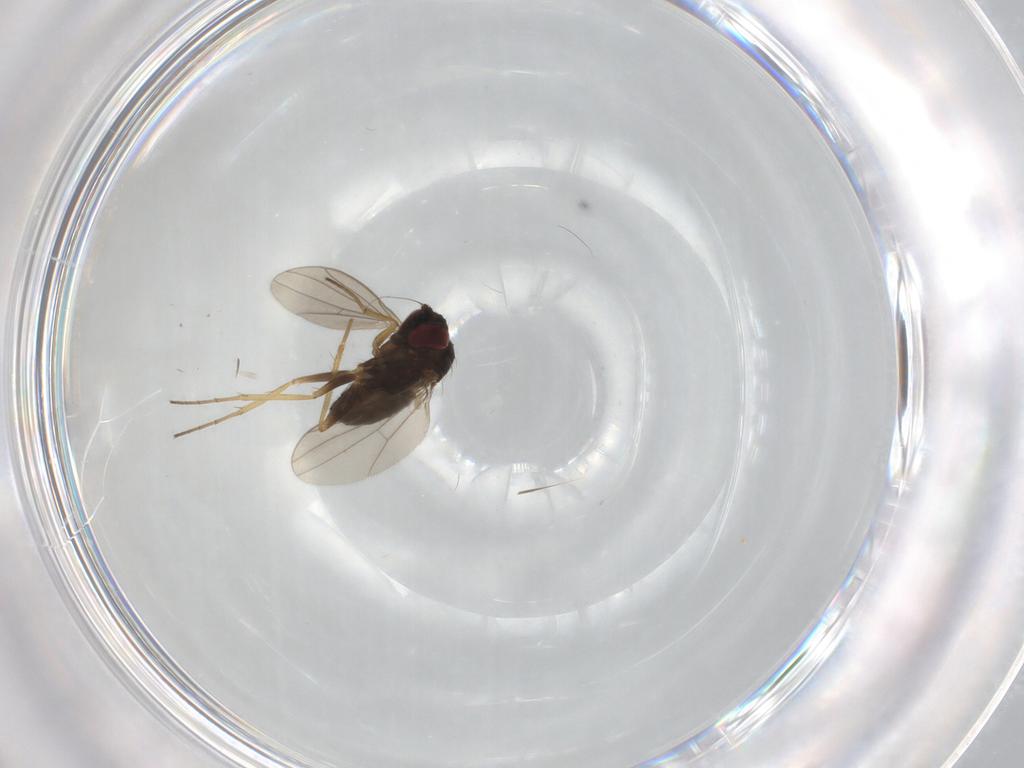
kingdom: Animalia
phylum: Arthropoda
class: Insecta
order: Diptera
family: Dolichopodidae
